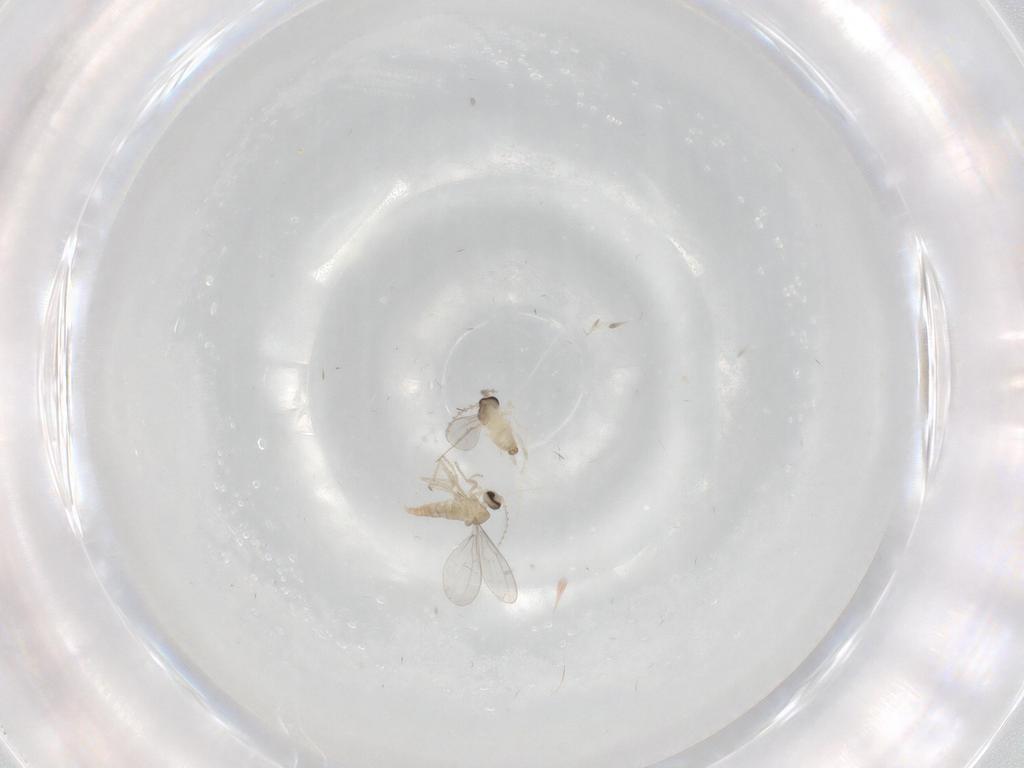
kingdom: Animalia
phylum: Arthropoda
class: Insecta
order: Diptera
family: Cecidomyiidae
